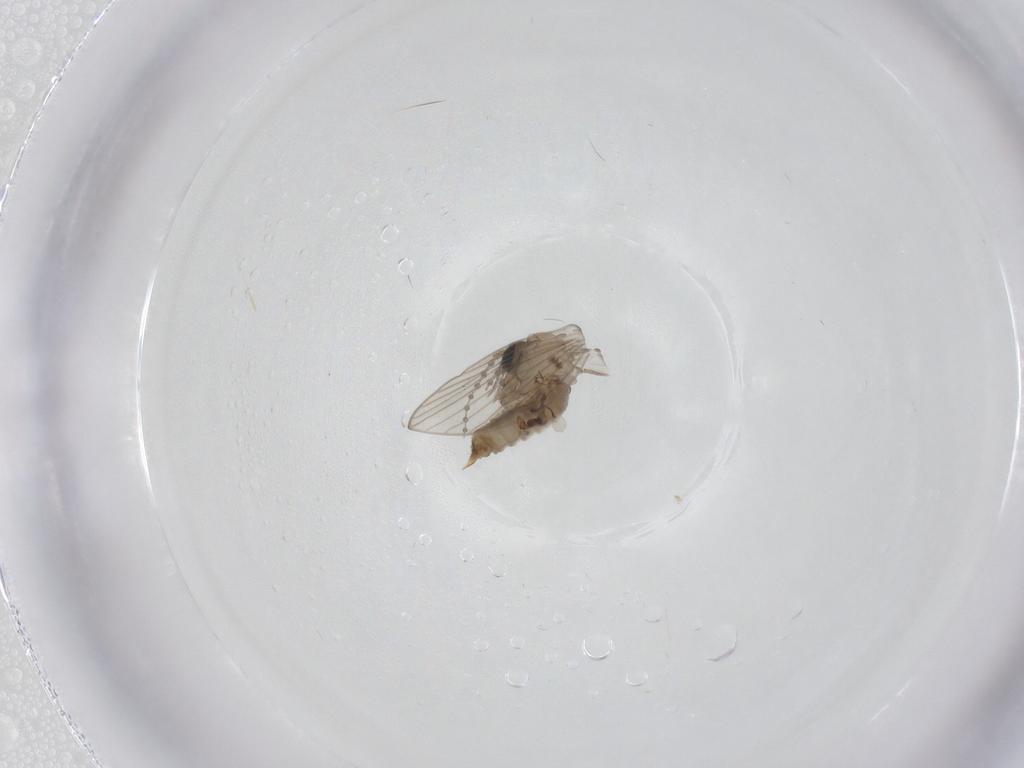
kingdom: Animalia
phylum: Arthropoda
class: Insecta
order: Diptera
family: Psychodidae
